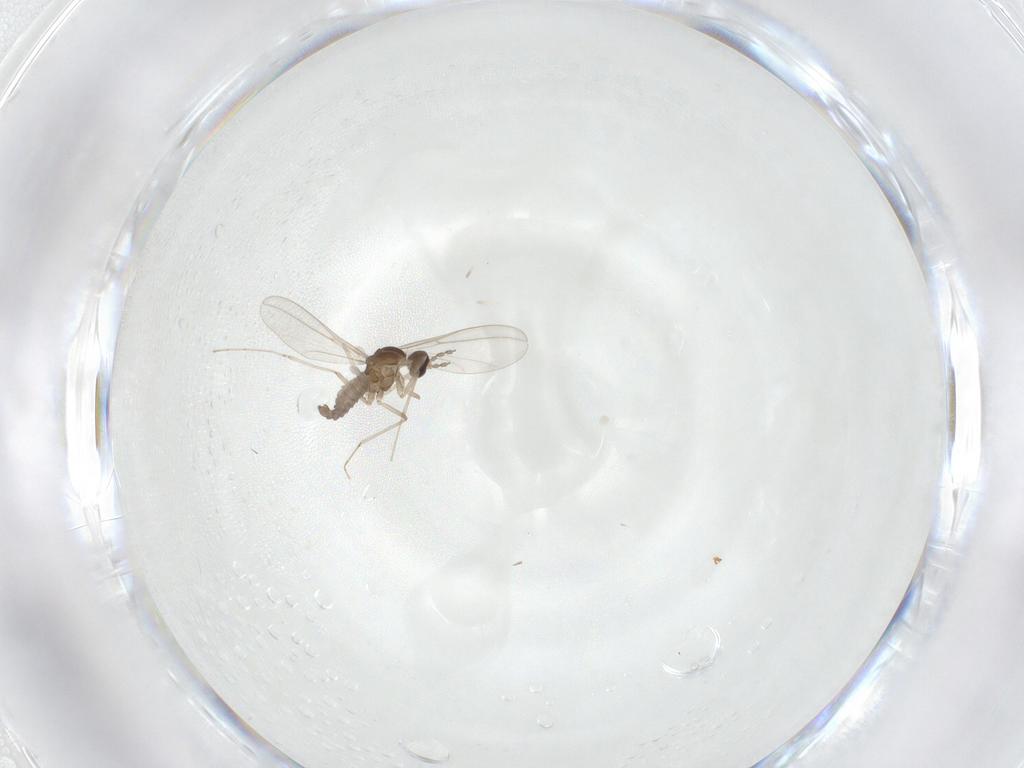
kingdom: Animalia
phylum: Arthropoda
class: Insecta
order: Diptera
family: Cecidomyiidae
